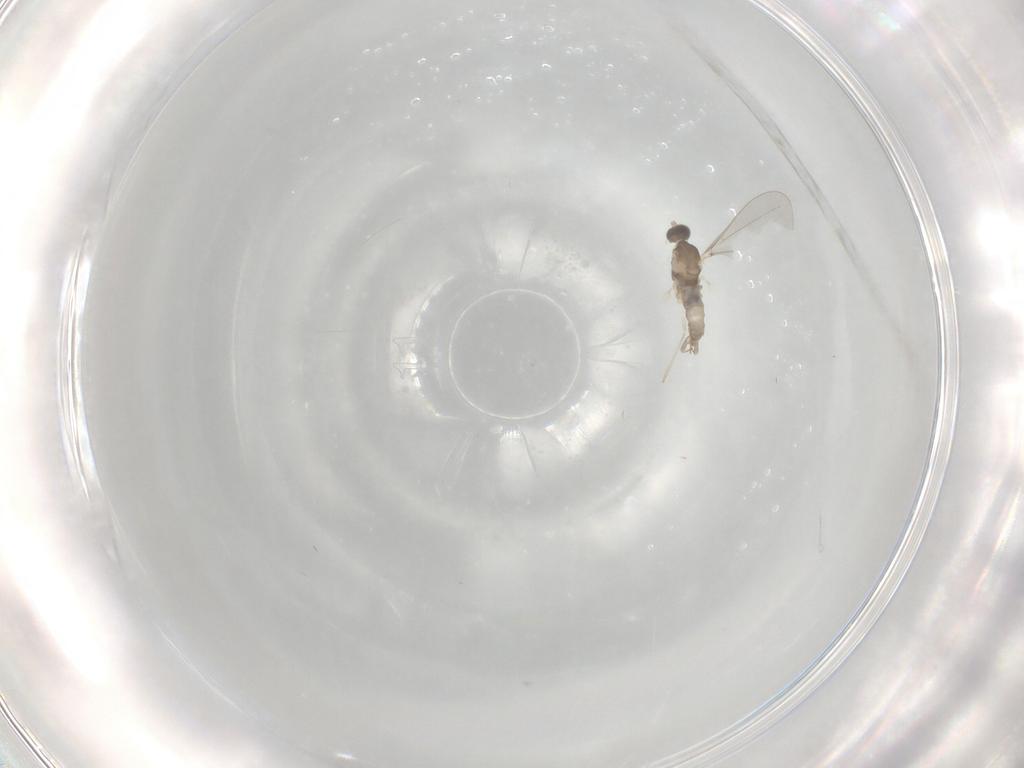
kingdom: Animalia
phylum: Arthropoda
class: Insecta
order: Diptera
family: Cecidomyiidae
